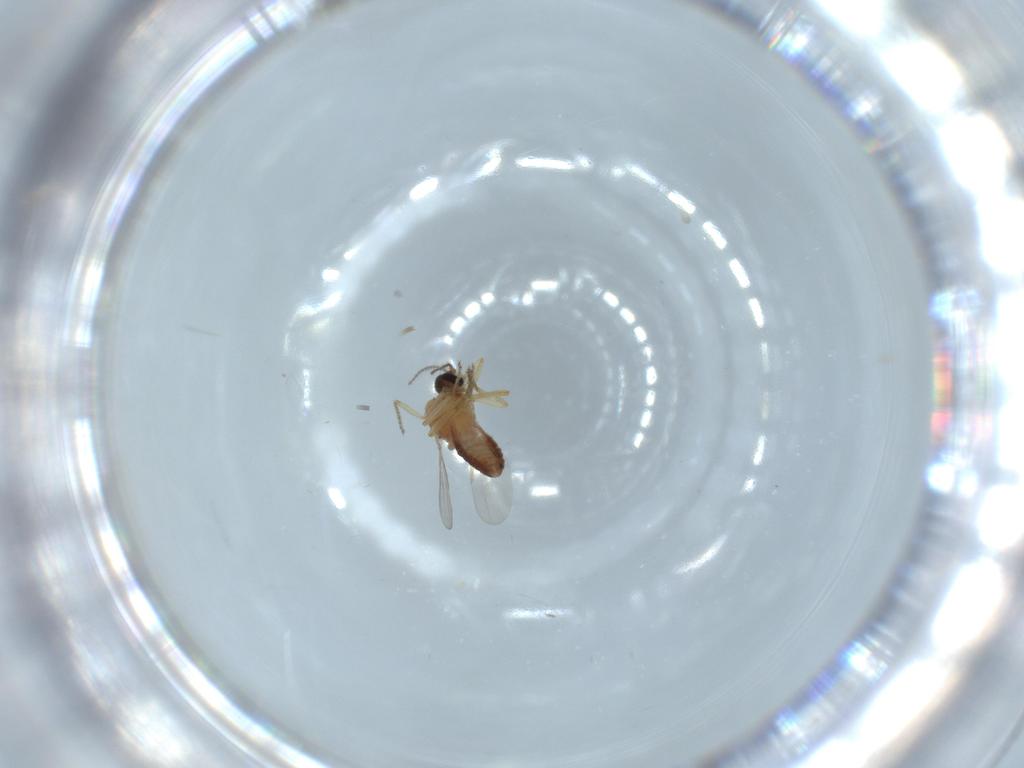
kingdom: Animalia
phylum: Arthropoda
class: Insecta
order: Diptera
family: Ceratopogonidae
